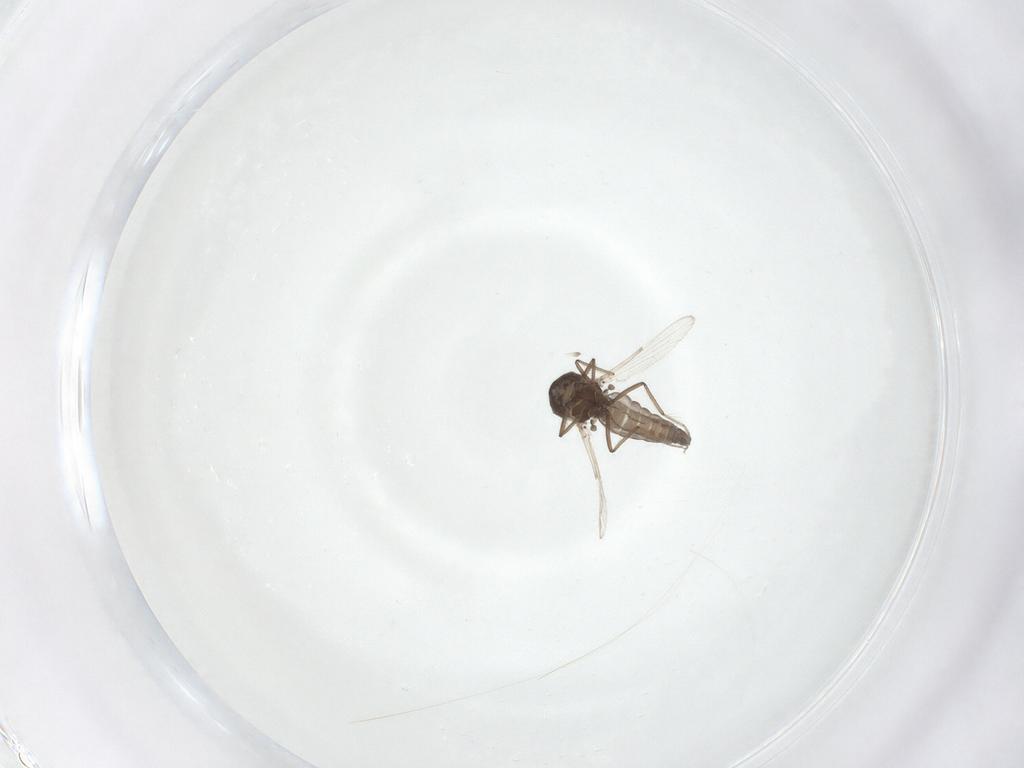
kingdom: Animalia
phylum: Arthropoda
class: Insecta
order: Diptera
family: Ceratopogonidae
